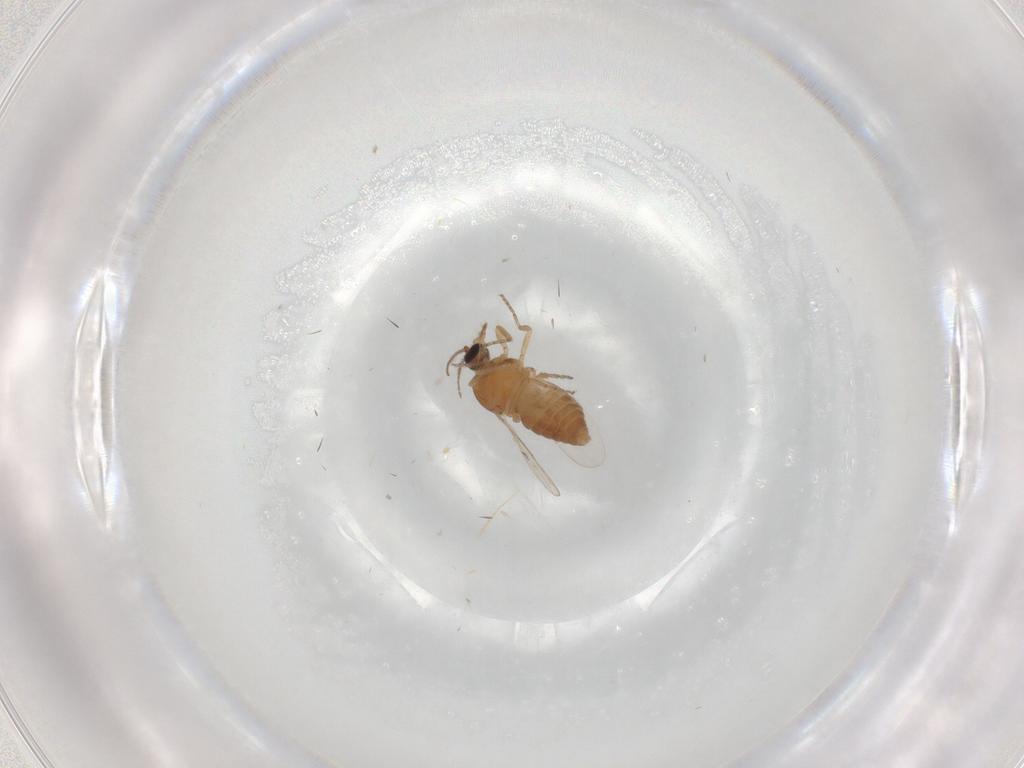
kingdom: Animalia
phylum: Arthropoda
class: Insecta
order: Diptera
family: Ceratopogonidae
